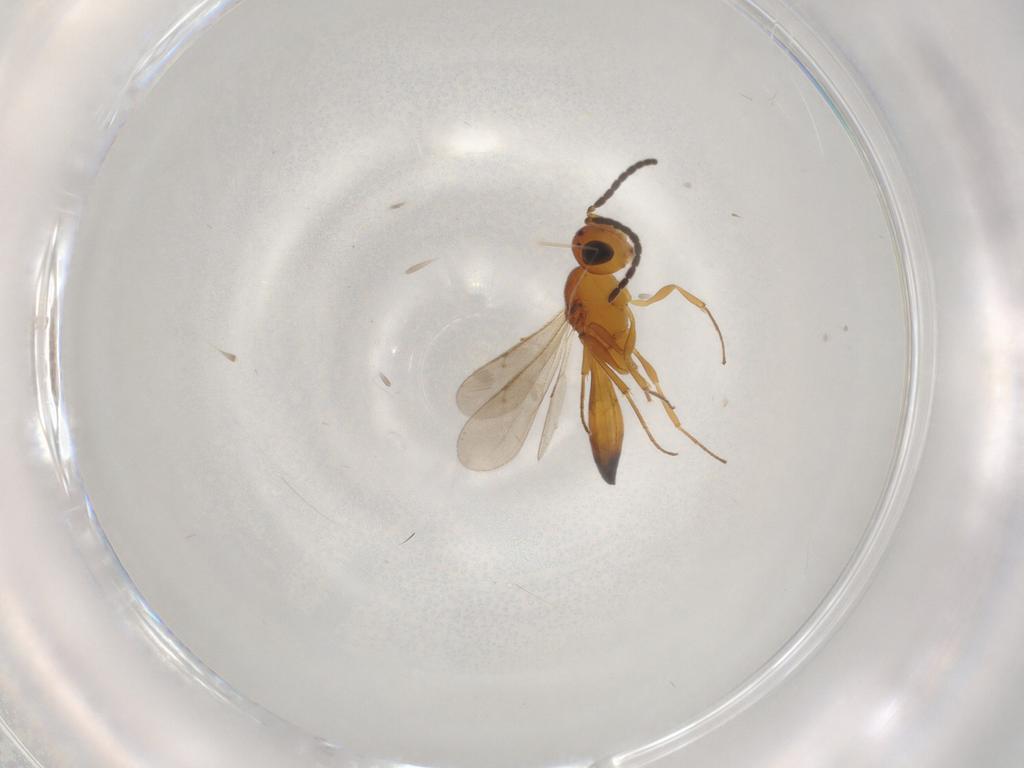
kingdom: Animalia
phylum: Arthropoda
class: Insecta
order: Hymenoptera
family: Scelionidae
